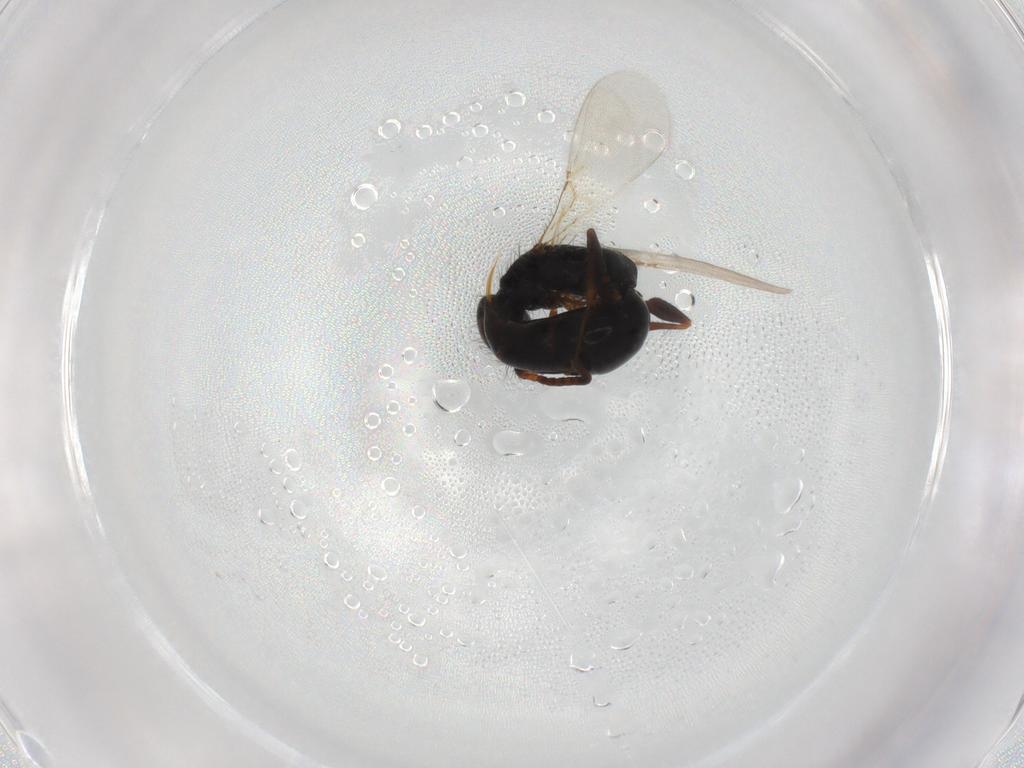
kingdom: Animalia
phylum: Arthropoda
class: Insecta
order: Hymenoptera
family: Bethylidae
